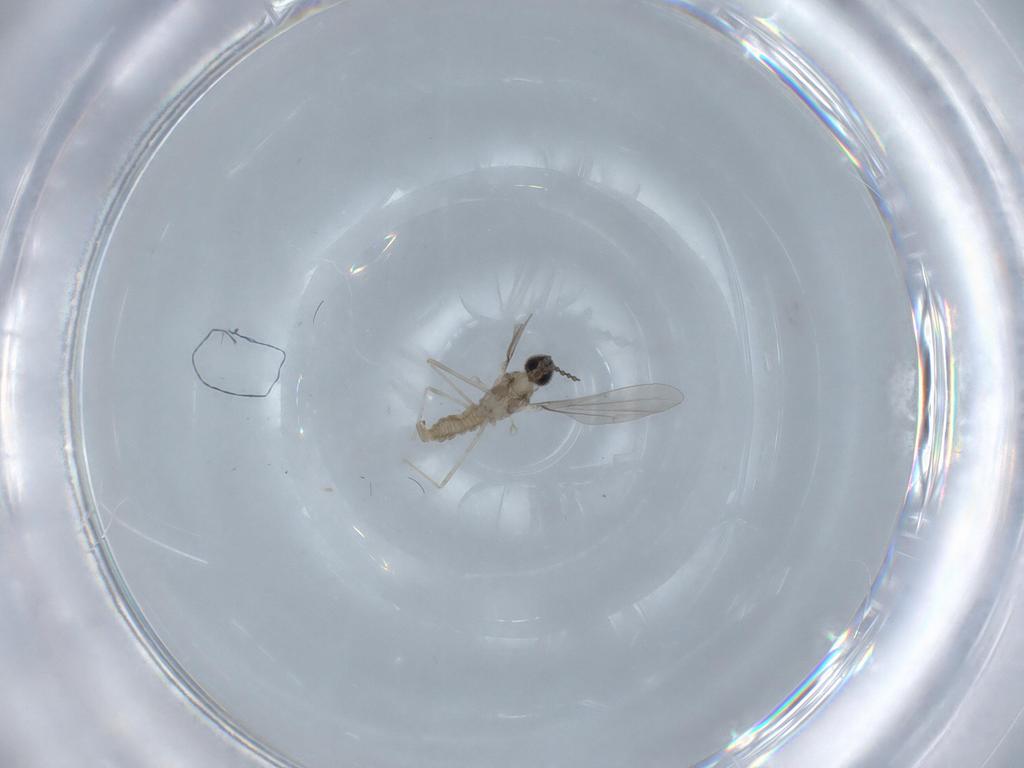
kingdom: Animalia
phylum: Arthropoda
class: Insecta
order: Diptera
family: Cecidomyiidae
